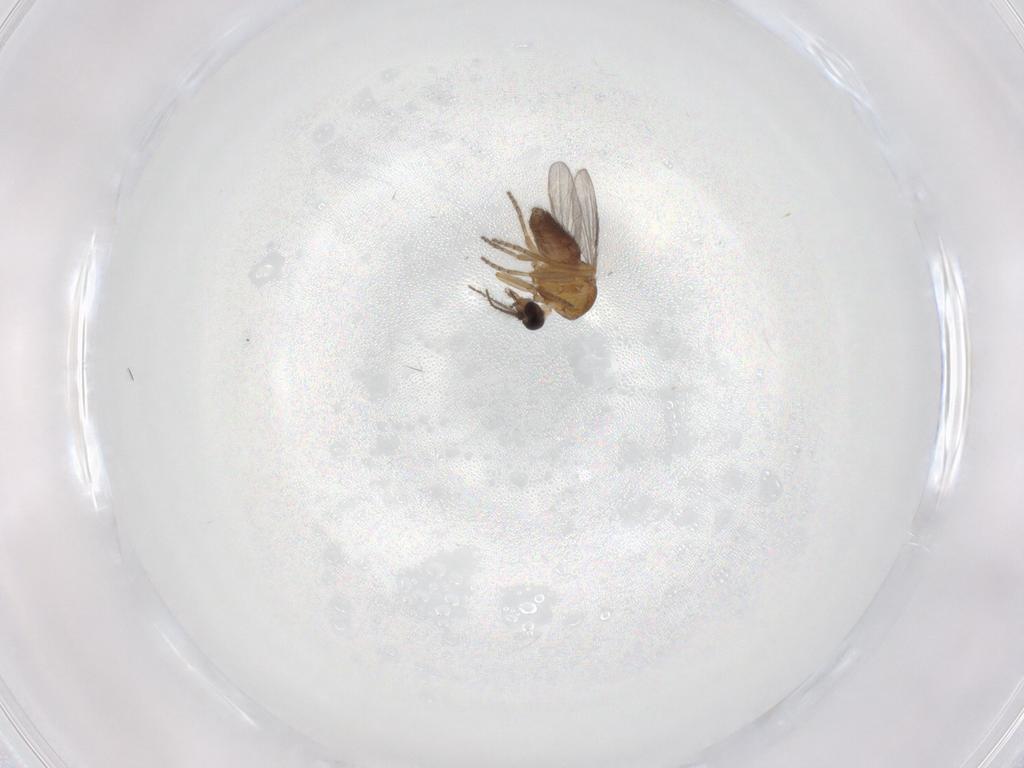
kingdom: Animalia
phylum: Arthropoda
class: Insecta
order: Diptera
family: Ceratopogonidae
